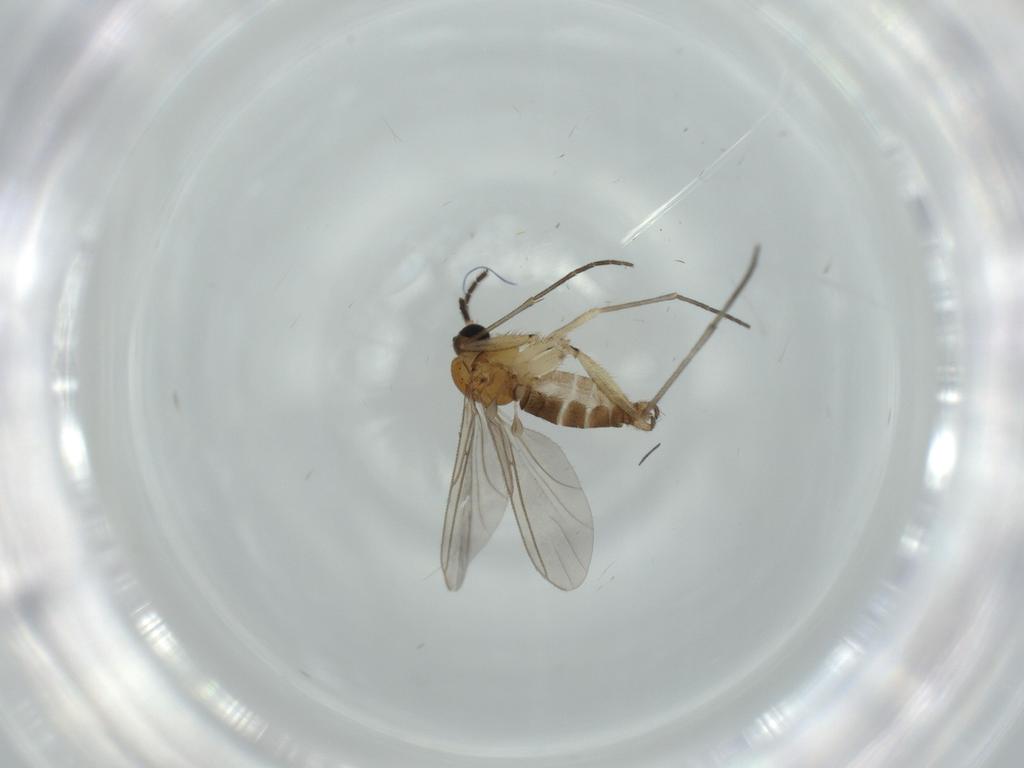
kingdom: Animalia
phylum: Arthropoda
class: Insecta
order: Diptera
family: Sciaridae
